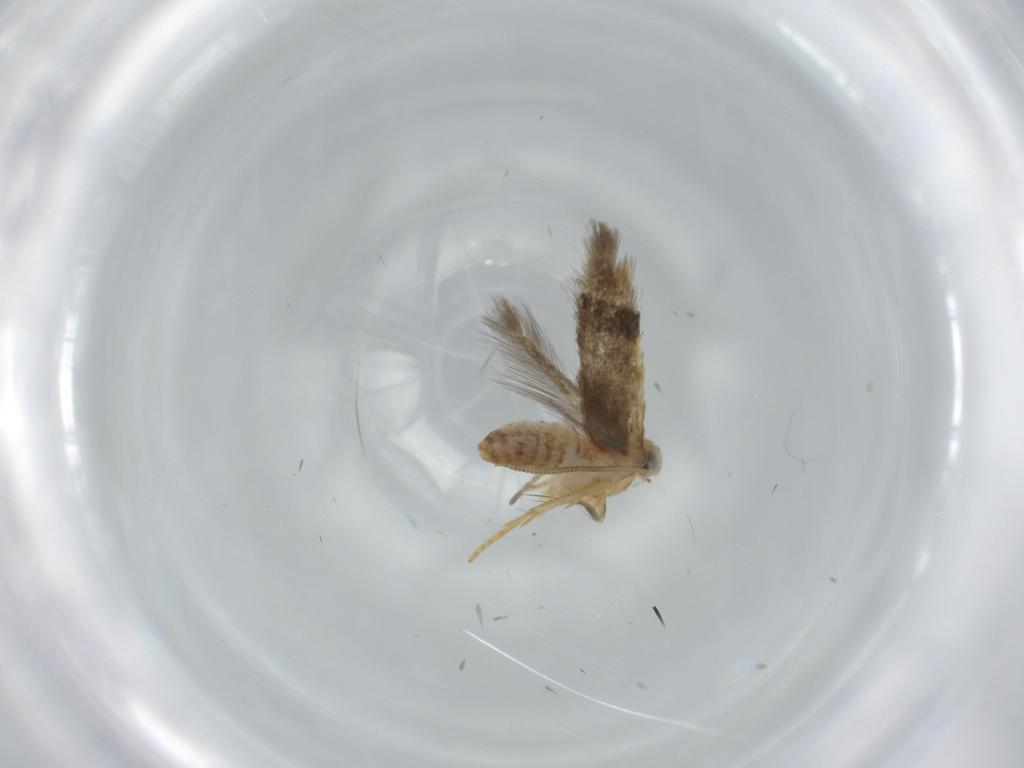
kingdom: Animalia
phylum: Arthropoda
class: Insecta
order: Lepidoptera
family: Nepticulidae
